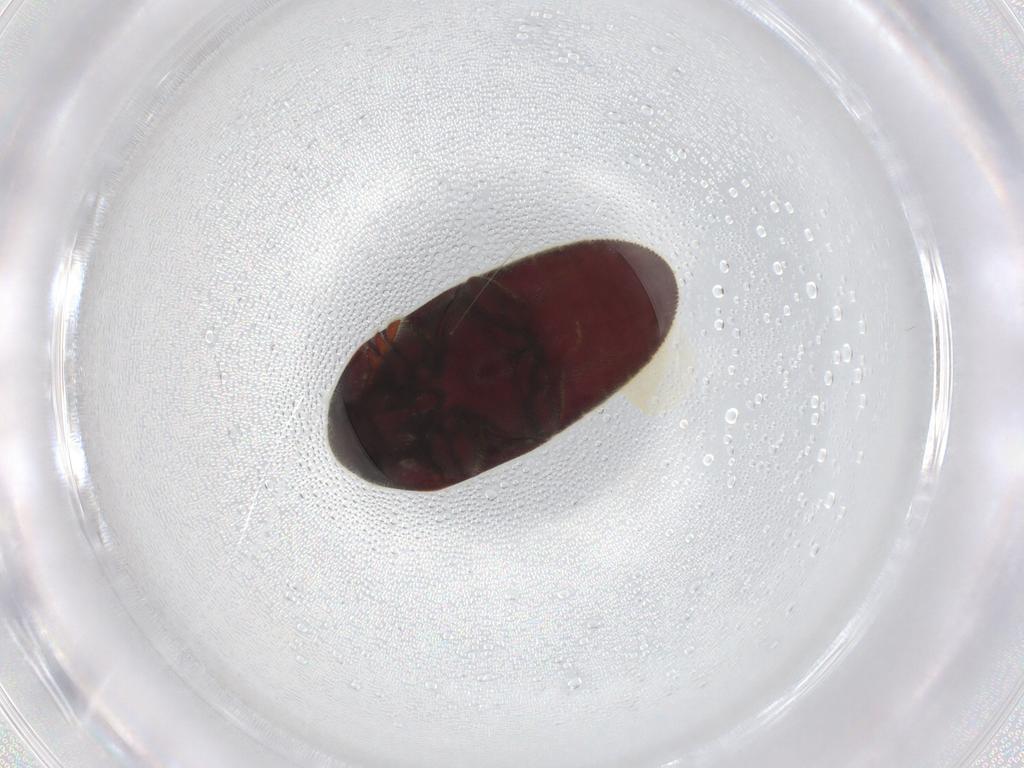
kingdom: Animalia
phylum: Arthropoda
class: Insecta
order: Coleoptera
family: Throscidae
